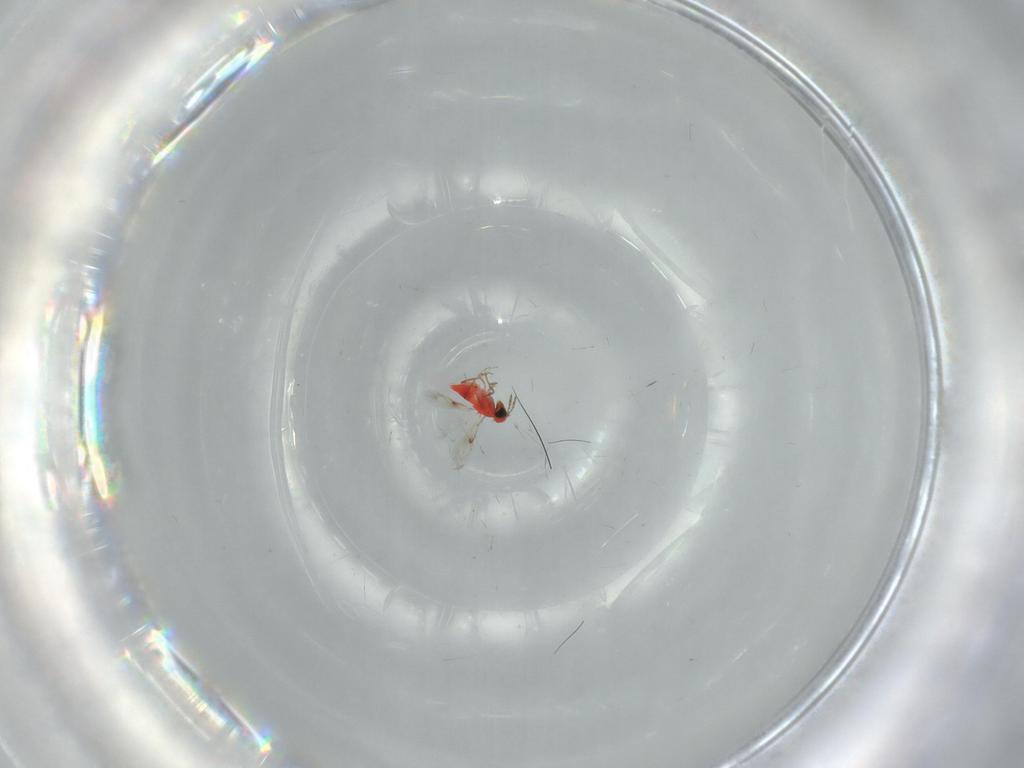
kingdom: Animalia
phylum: Arthropoda
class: Insecta
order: Hymenoptera
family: Trichogrammatidae
